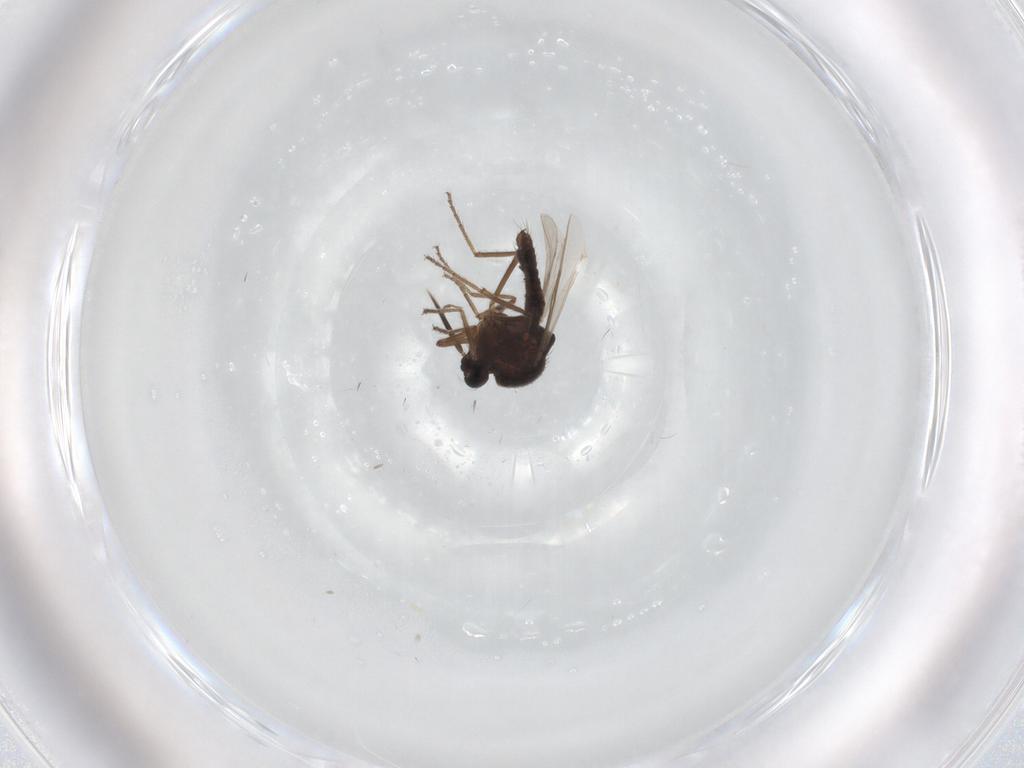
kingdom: Animalia
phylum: Arthropoda
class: Insecta
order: Diptera
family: Ceratopogonidae
